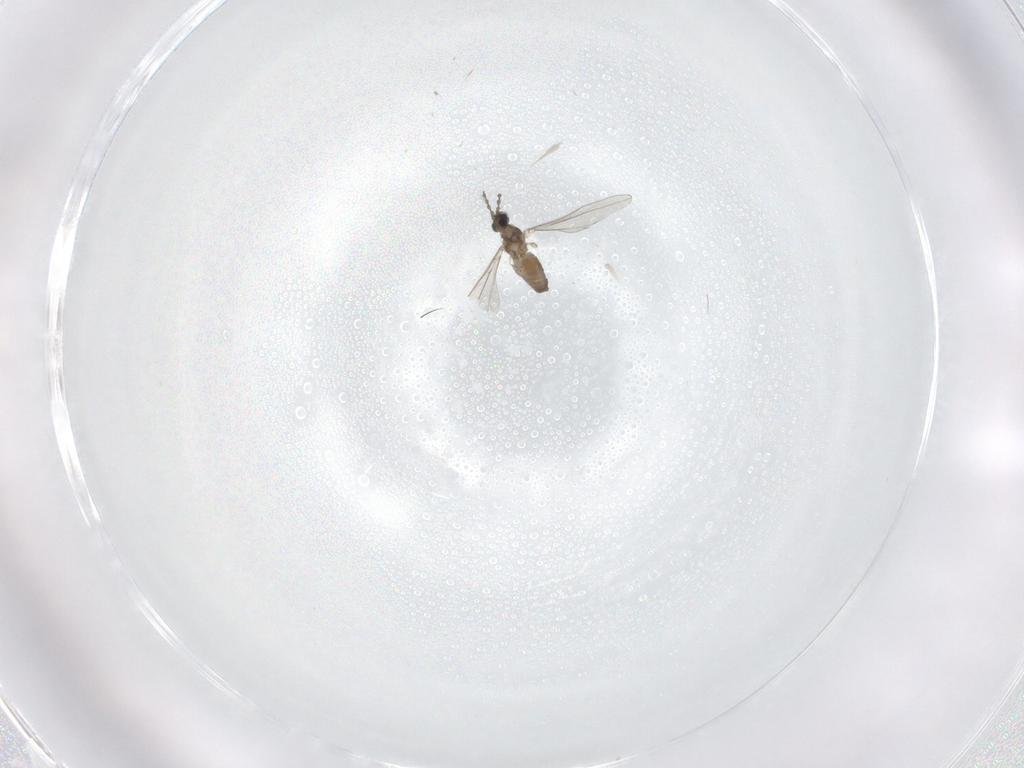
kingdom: Animalia
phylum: Arthropoda
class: Insecta
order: Diptera
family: Cecidomyiidae
